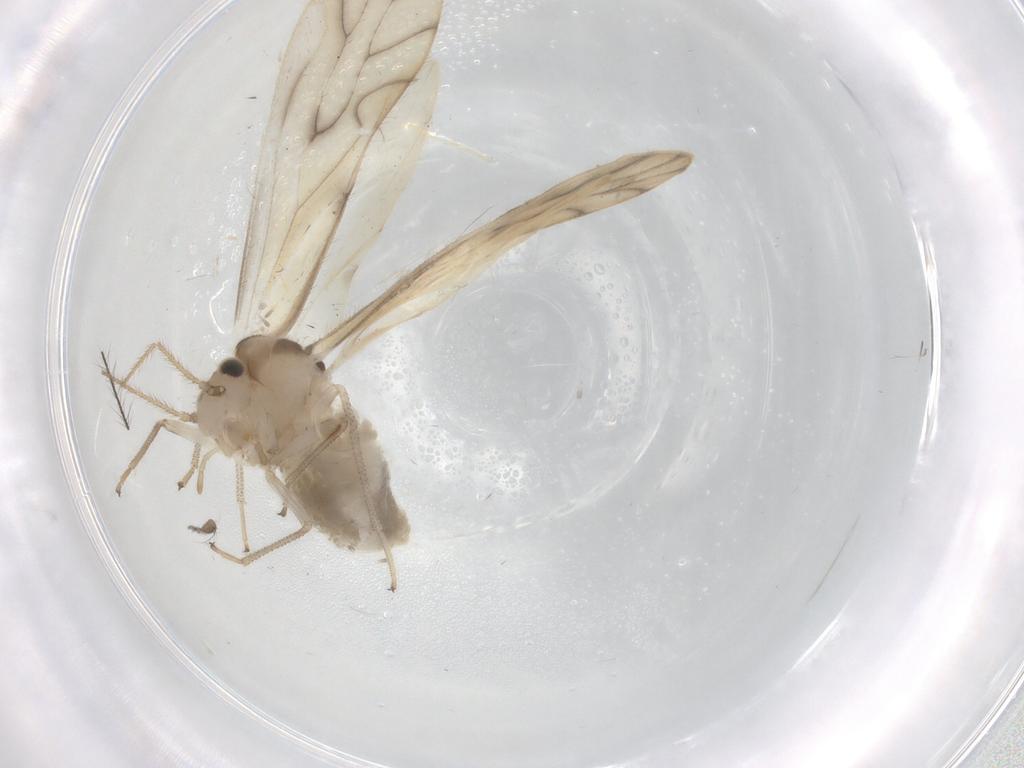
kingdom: Animalia
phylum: Arthropoda
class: Insecta
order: Psocodea
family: Caeciliusidae
